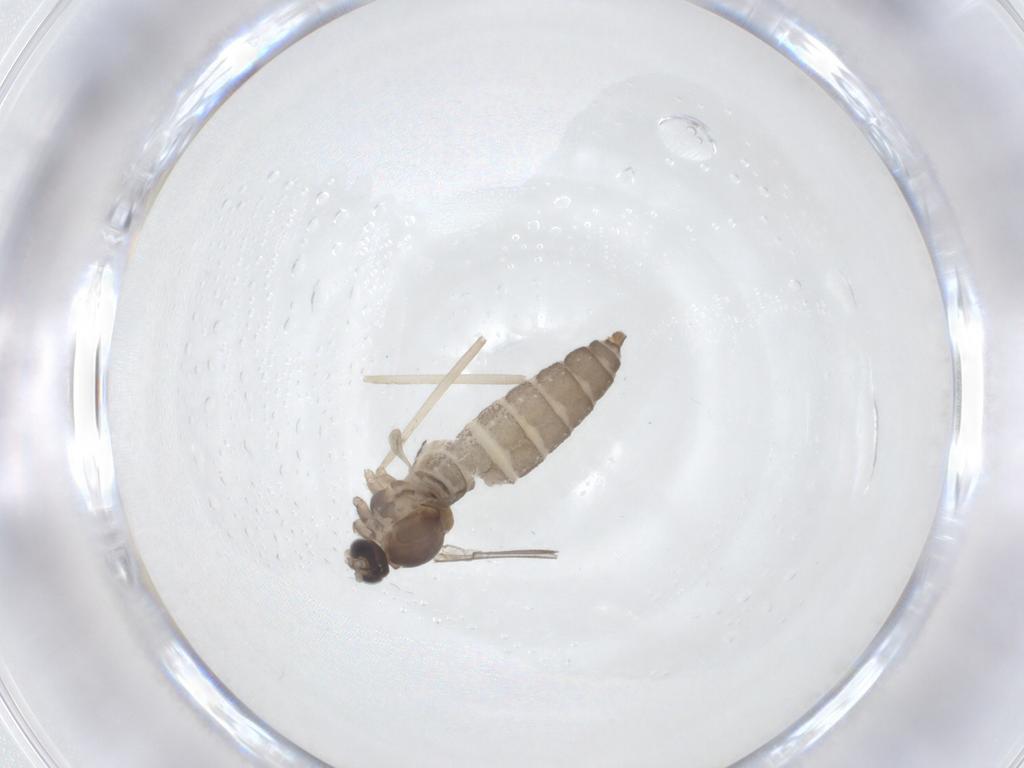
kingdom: Animalia
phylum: Arthropoda
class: Insecta
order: Diptera
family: Cecidomyiidae
